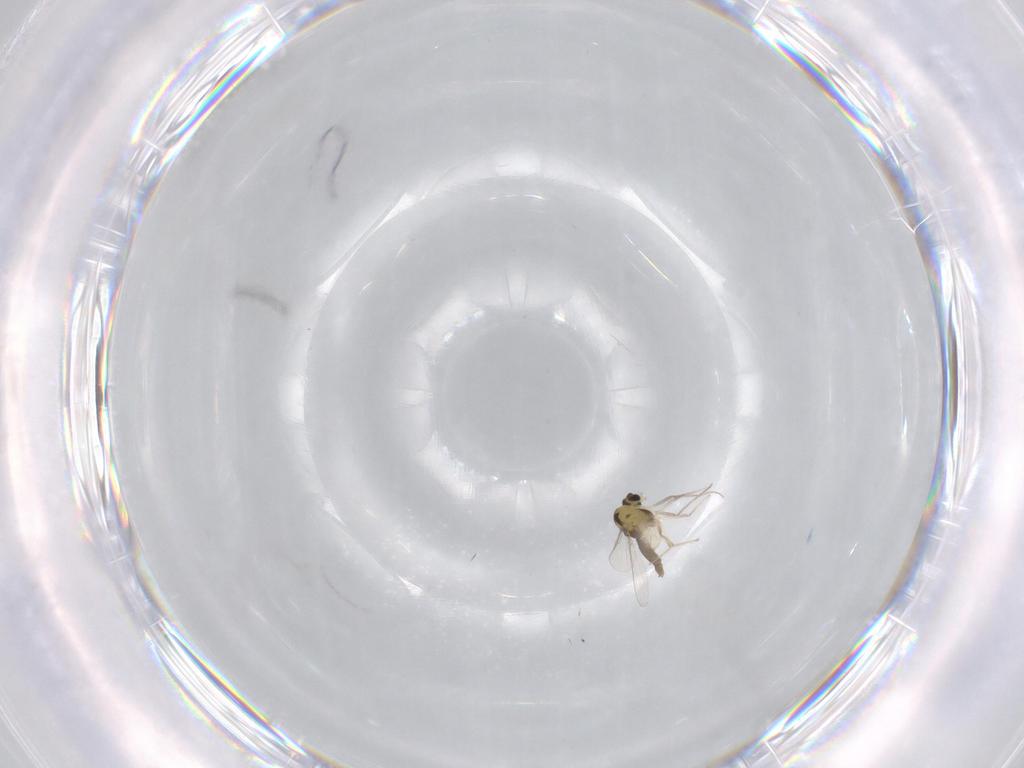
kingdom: Animalia
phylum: Arthropoda
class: Insecta
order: Diptera
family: Chironomidae
